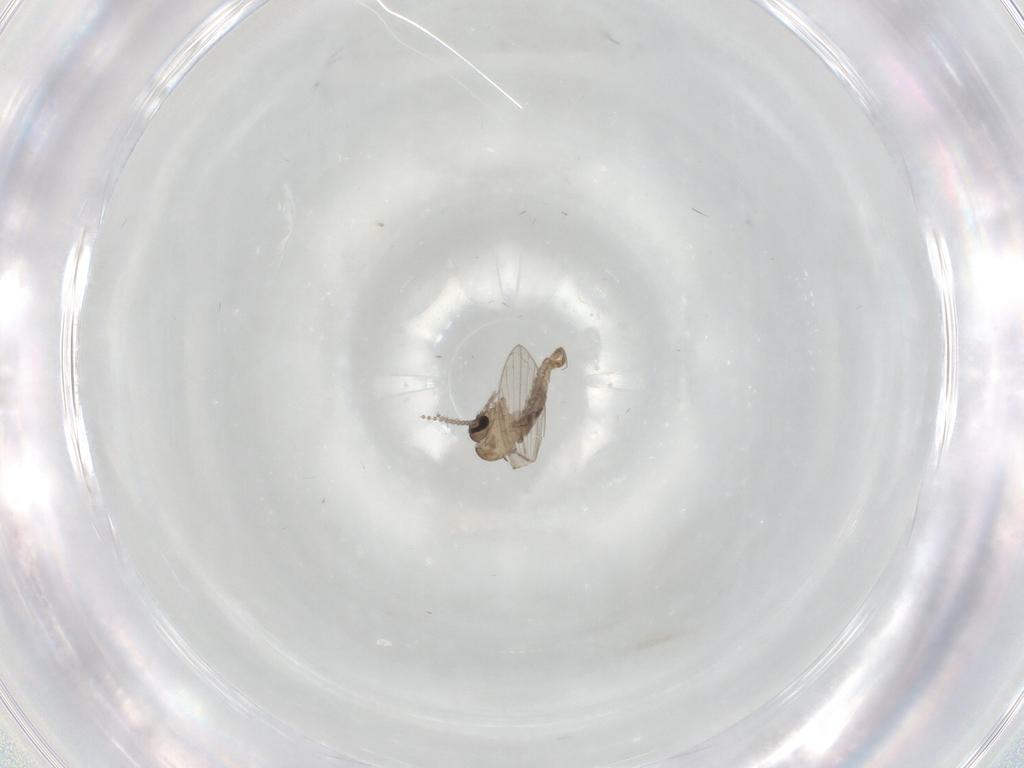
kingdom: Animalia
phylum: Arthropoda
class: Insecta
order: Diptera
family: Psychodidae
